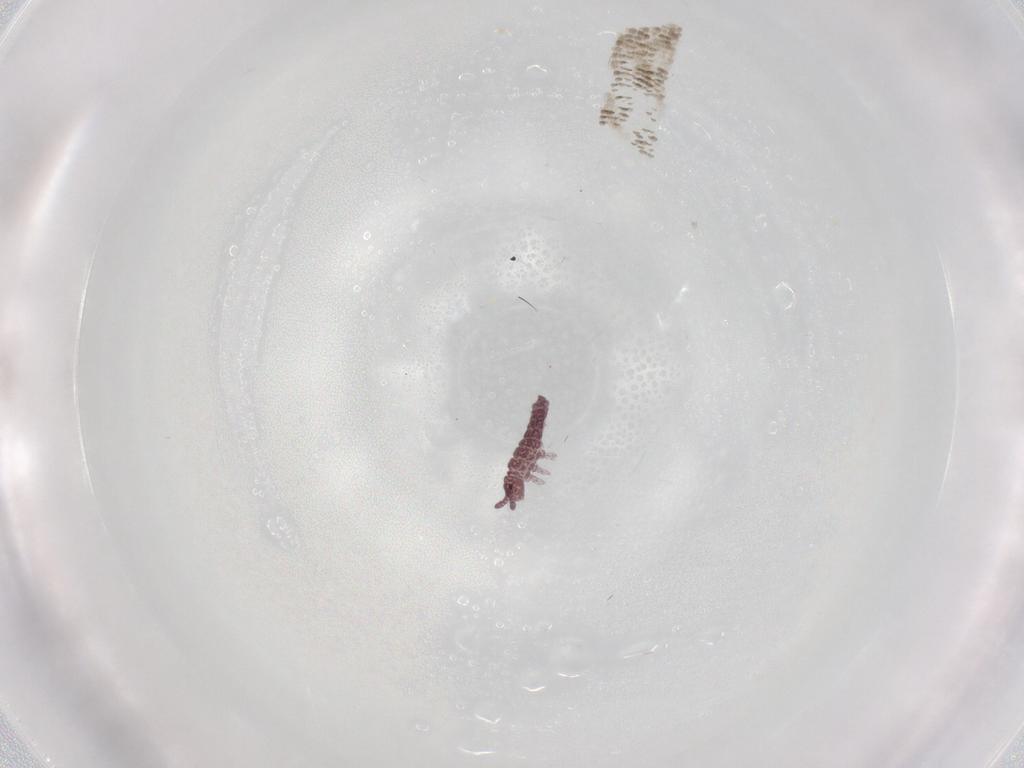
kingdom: Animalia
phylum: Arthropoda
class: Collembola
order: Poduromorpha
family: Hypogastruridae
